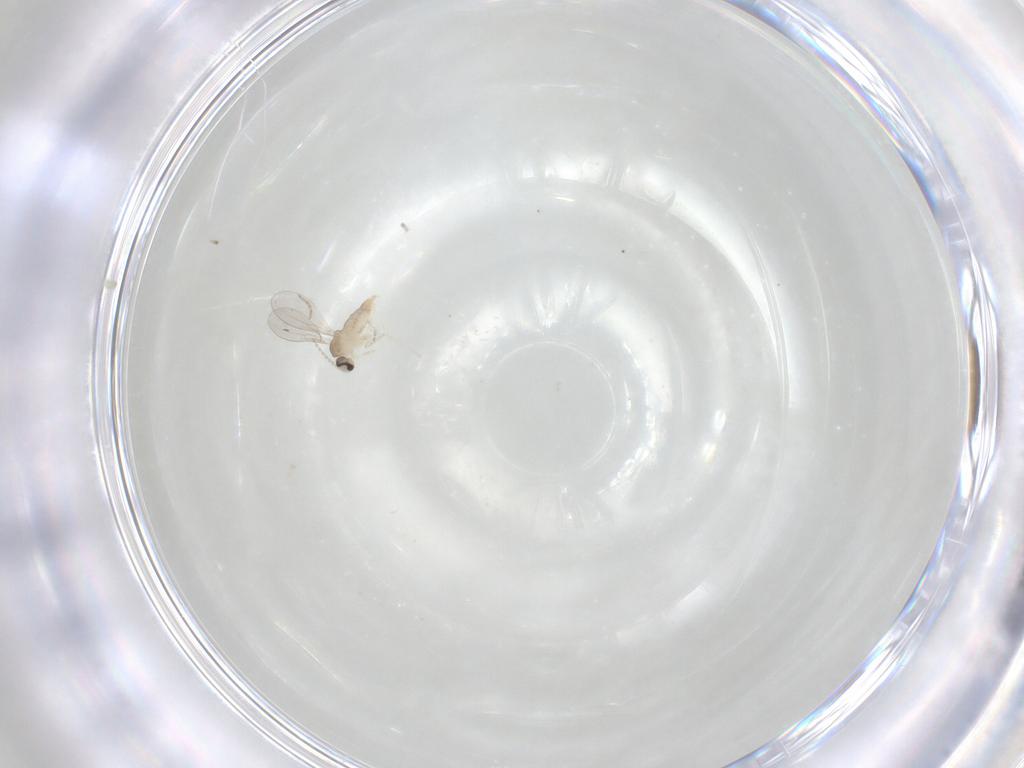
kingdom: Animalia
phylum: Arthropoda
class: Insecta
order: Diptera
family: Cecidomyiidae
